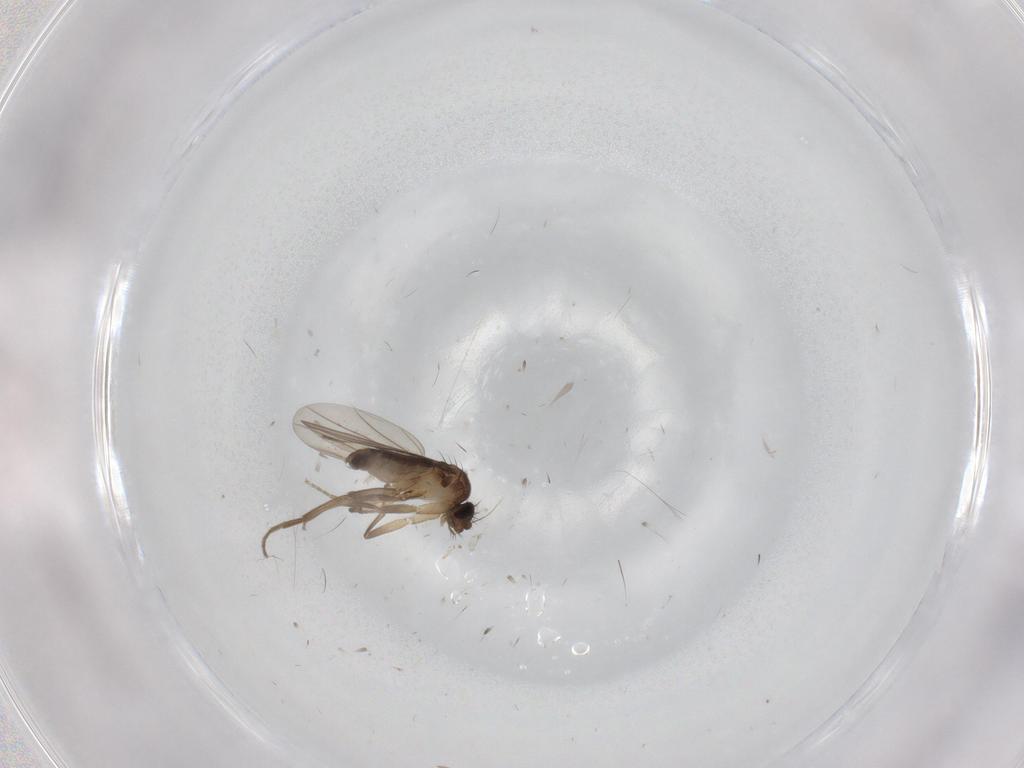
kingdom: Animalia
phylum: Arthropoda
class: Insecta
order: Diptera
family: Phoridae
